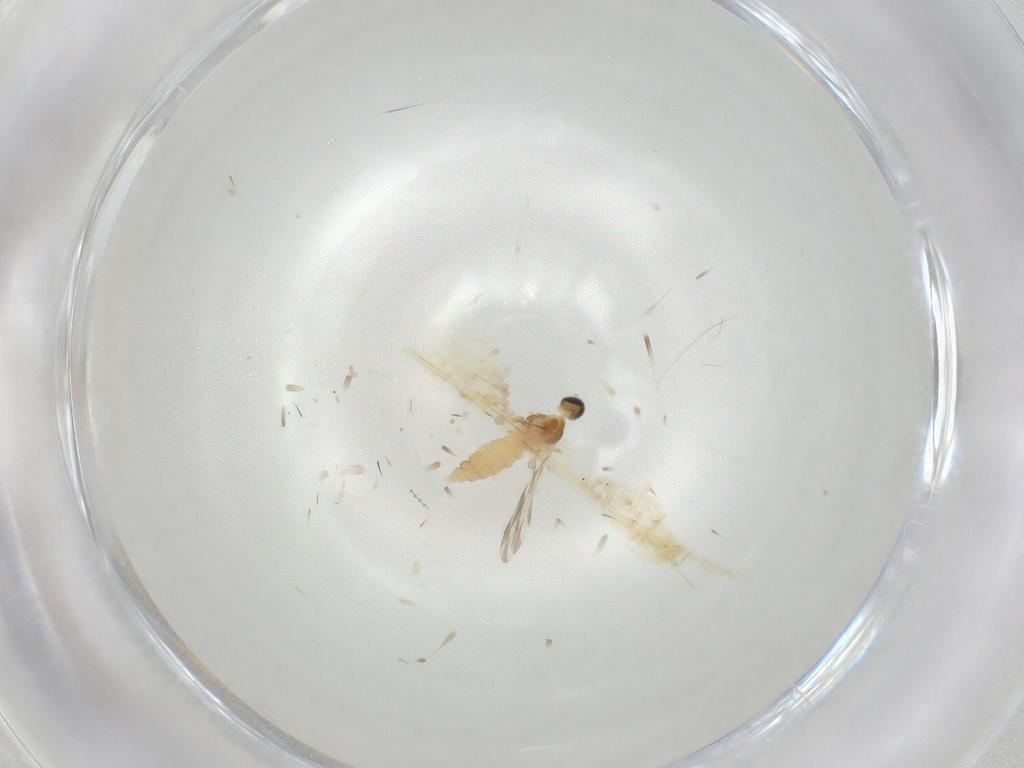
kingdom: Animalia
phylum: Arthropoda
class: Insecta
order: Diptera
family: Cecidomyiidae
